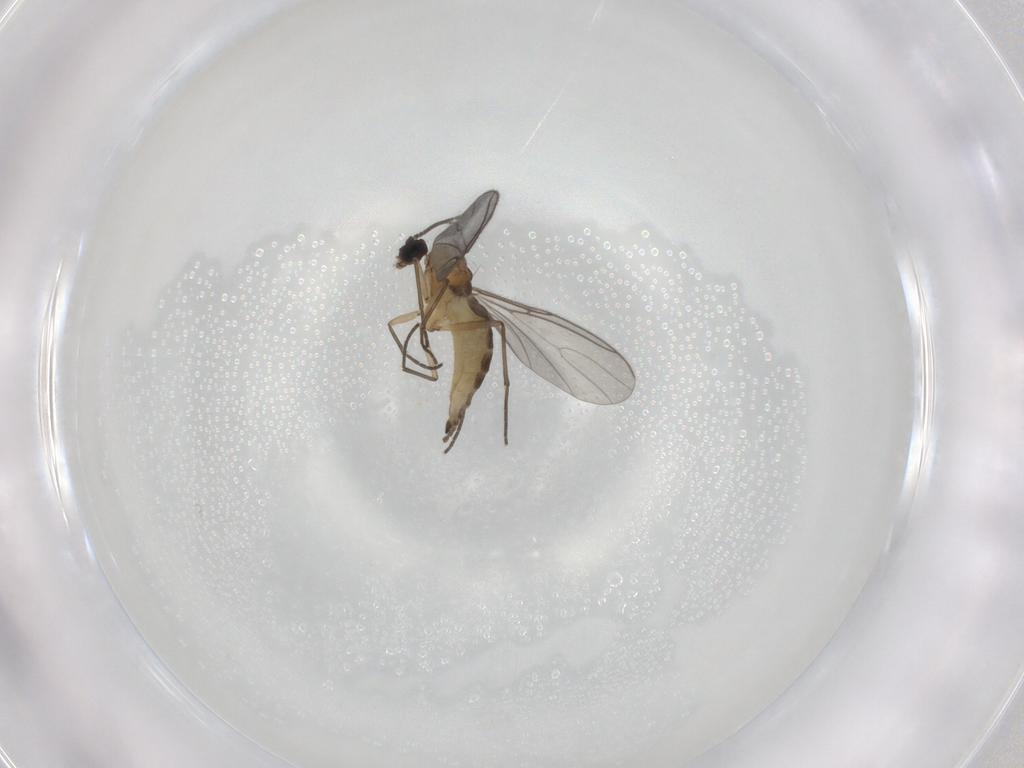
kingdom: Animalia
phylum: Arthropoda
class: Insecta
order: Diptera
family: Sciaridae
